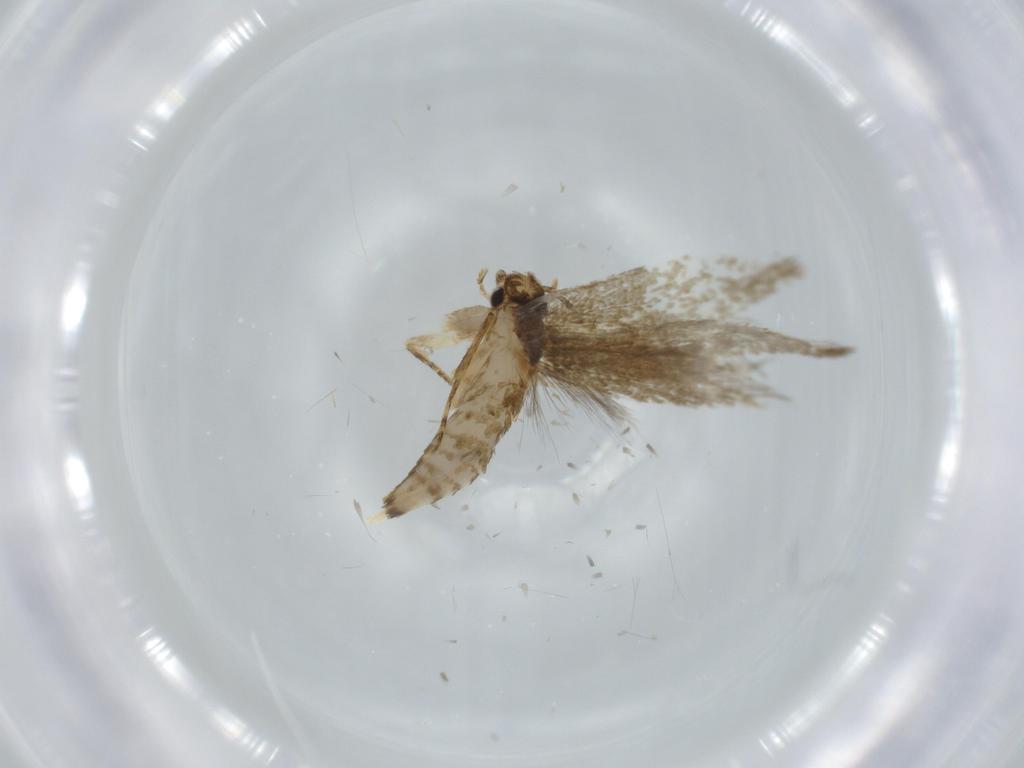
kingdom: Animalia
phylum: Arthropoda
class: Insecta
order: Lepidoptera
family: Tineidae
